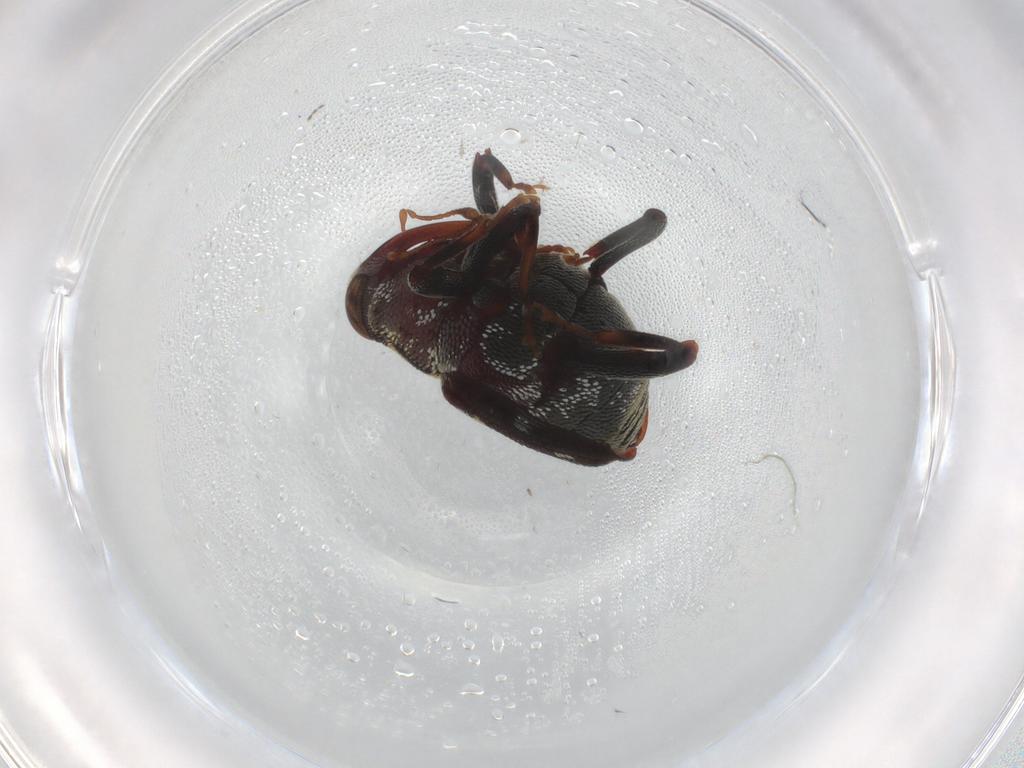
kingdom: Animalia
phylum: Arthropoda
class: Insecta
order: Coleoptera
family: Curculionidae
